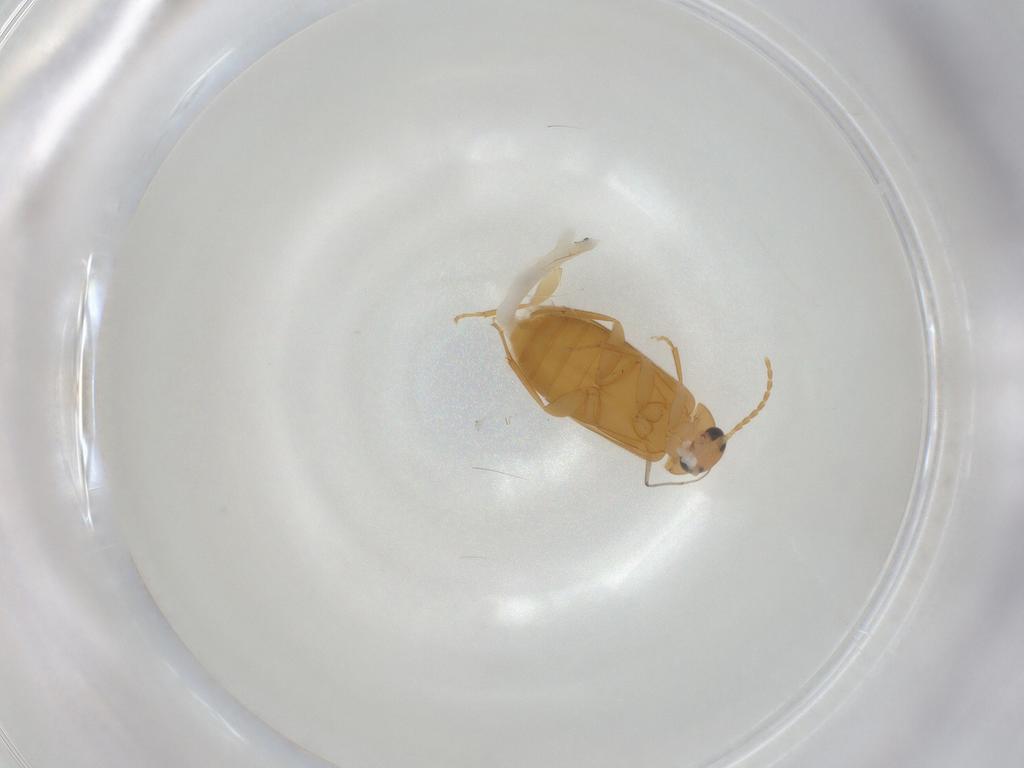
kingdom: Animalia
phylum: Arthropoda
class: Insecta
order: Coleoptera
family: Scraptiidae
